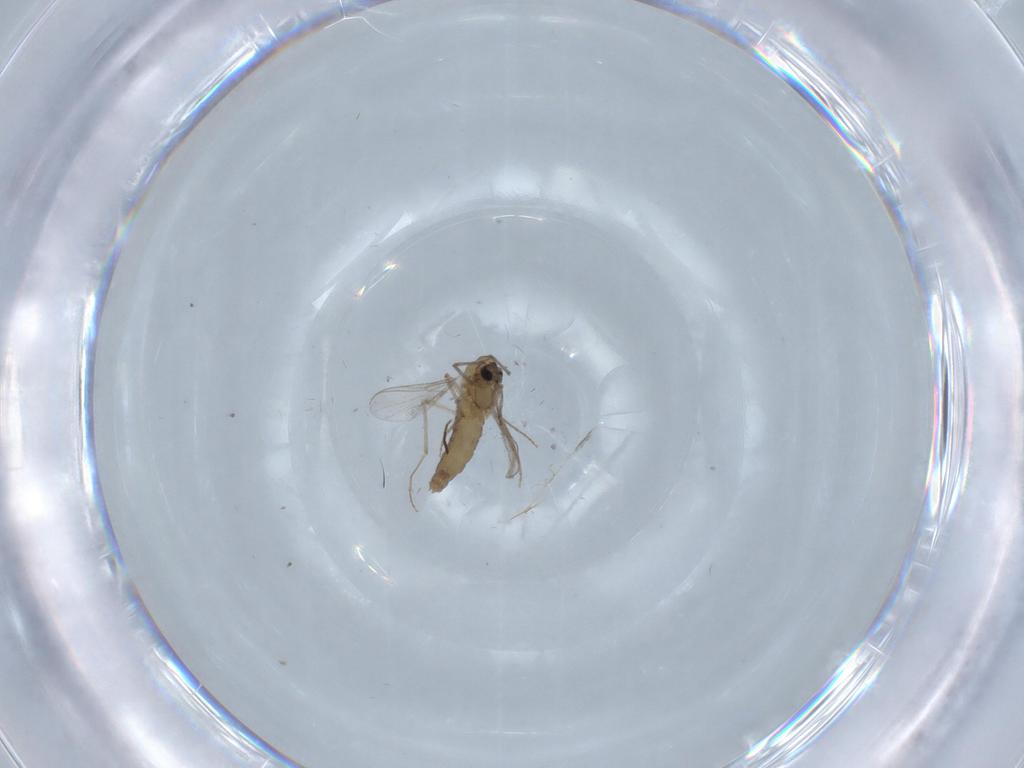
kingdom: Animalia
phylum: Arthropoda
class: Insecta
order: Diptera
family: Chironomidae
